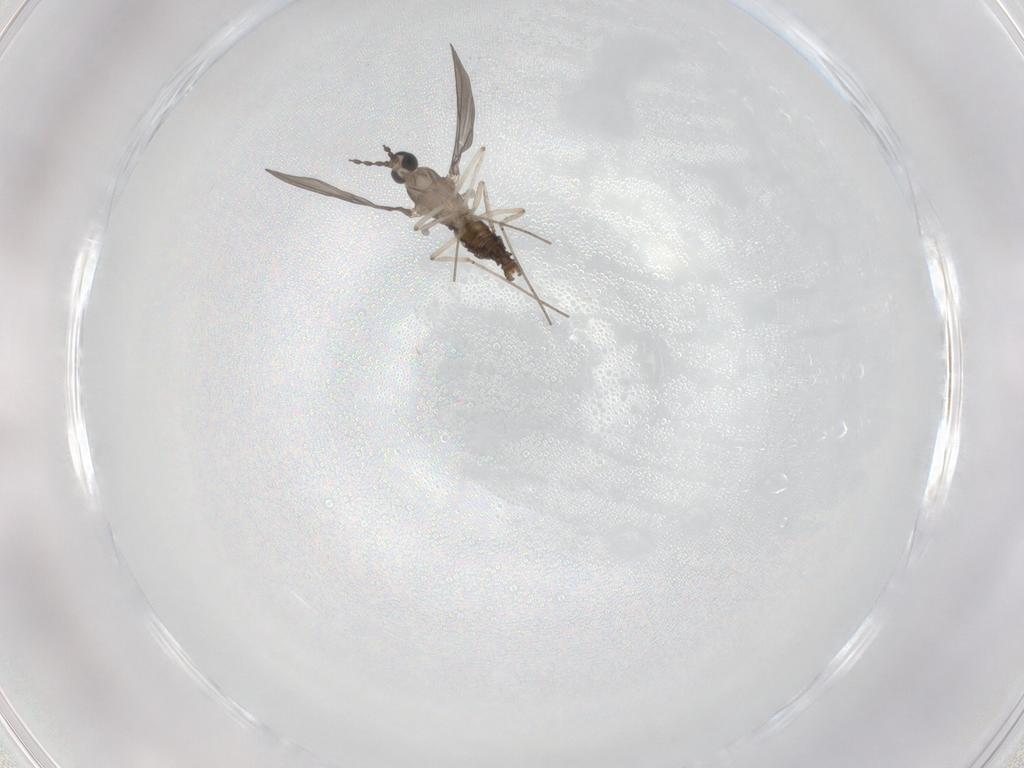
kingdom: Animalia
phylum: Arthropoda
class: Insecta
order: Diptera
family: Cecidomyiidae
